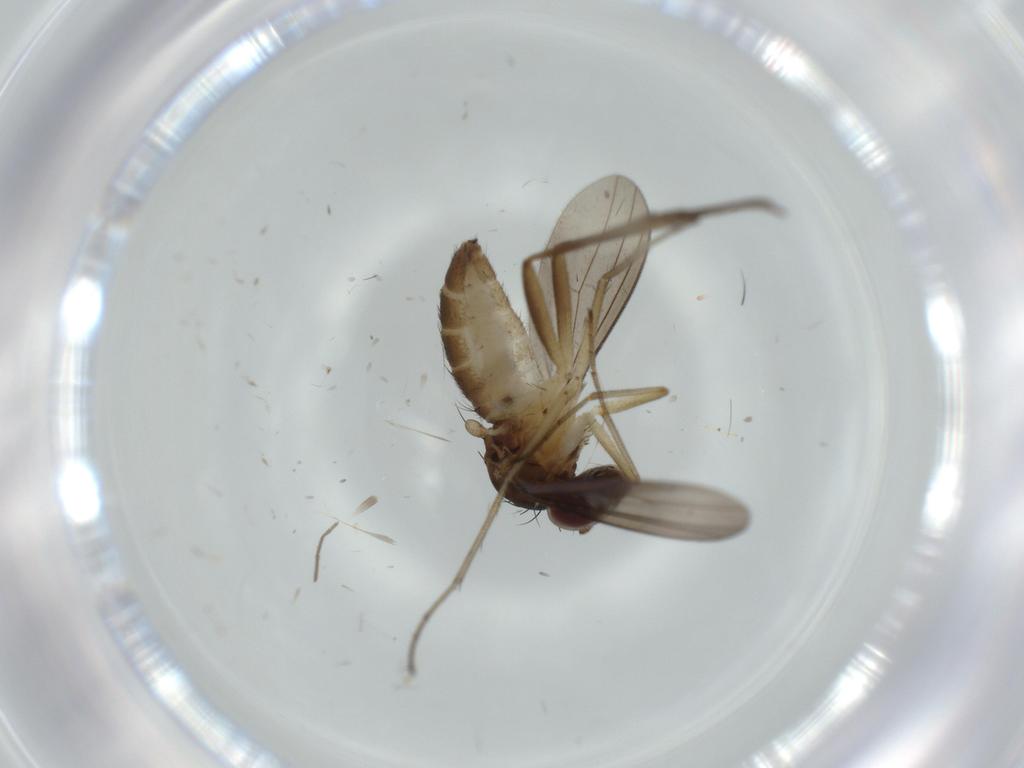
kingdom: Animalia
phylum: Arthropoda
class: Insecta
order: Diptera
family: Dolichopodidae
